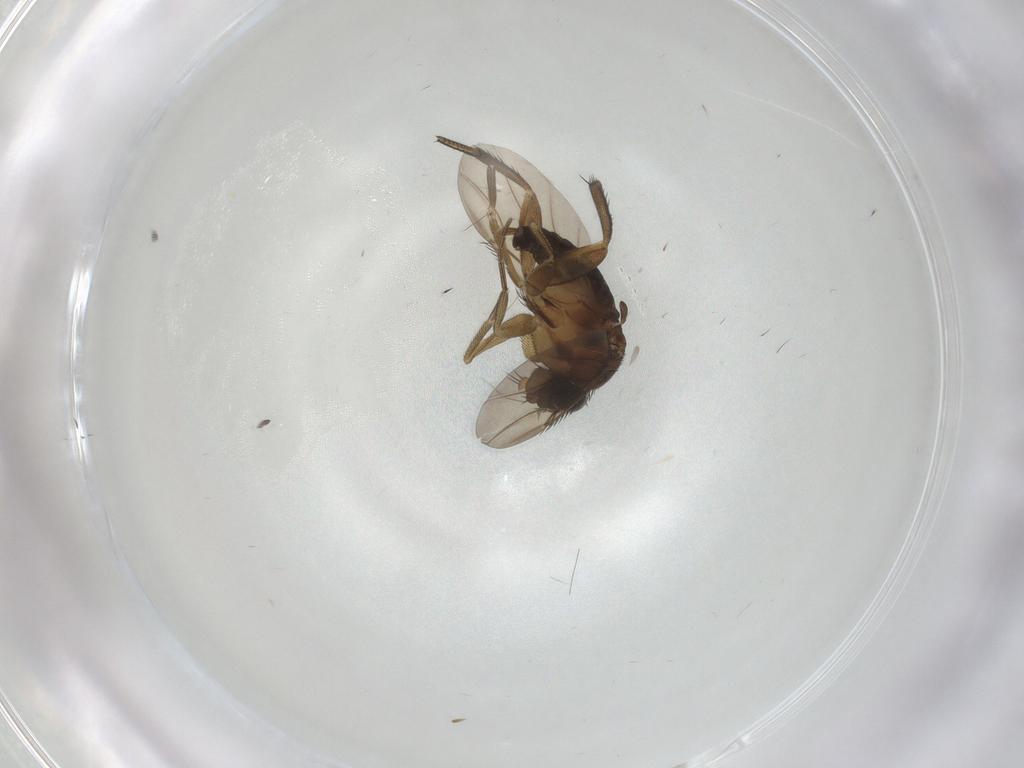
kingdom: Animalia
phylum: Arthropoda
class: Insecta
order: Diptera
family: Phoridae
